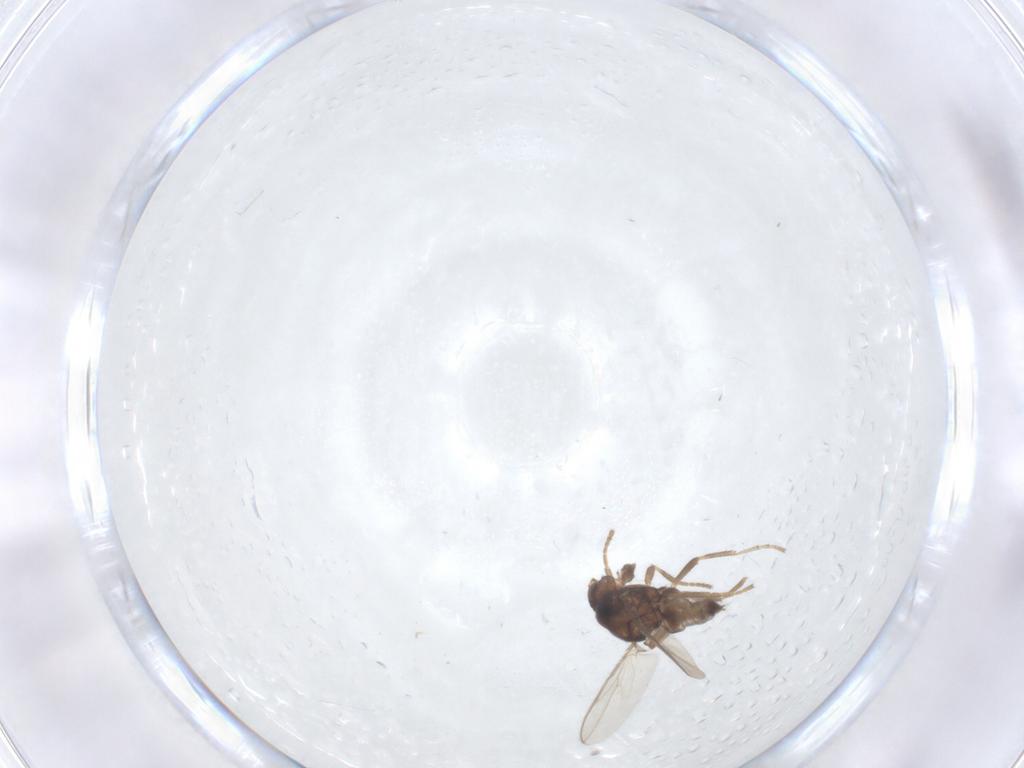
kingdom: Animalia
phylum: Arthropoda
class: Insecta
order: Diptera
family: Sphaeroceridae
